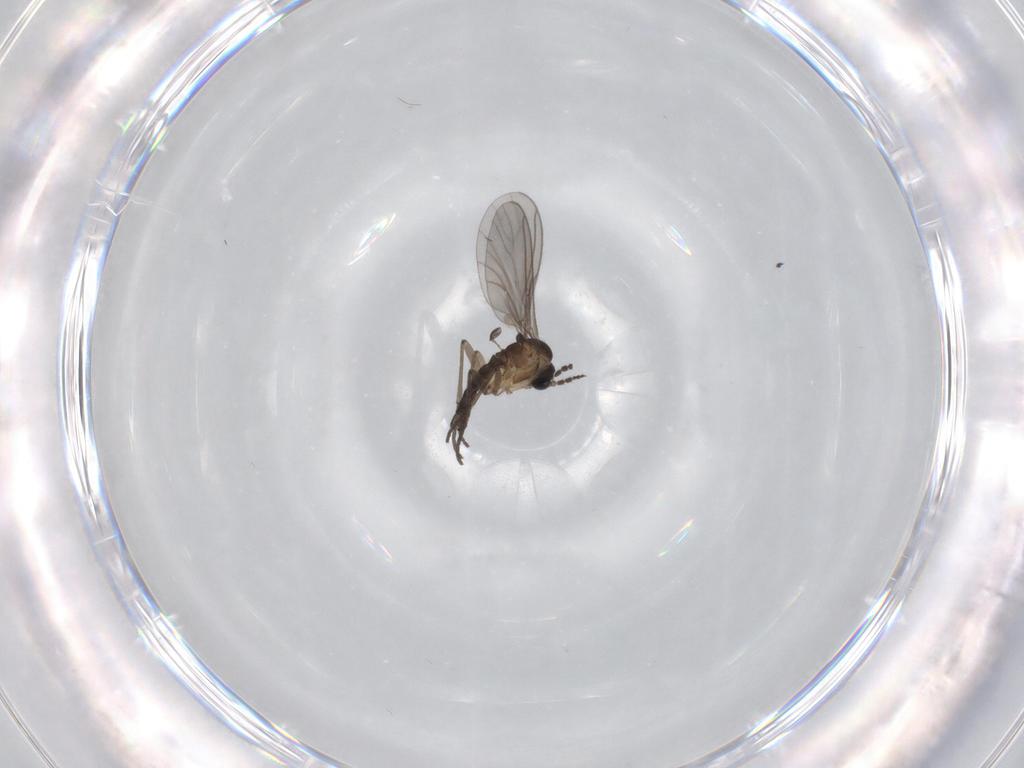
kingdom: Animalia
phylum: Arthropoda
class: Insecta
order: Diptera
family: Sciaridae
